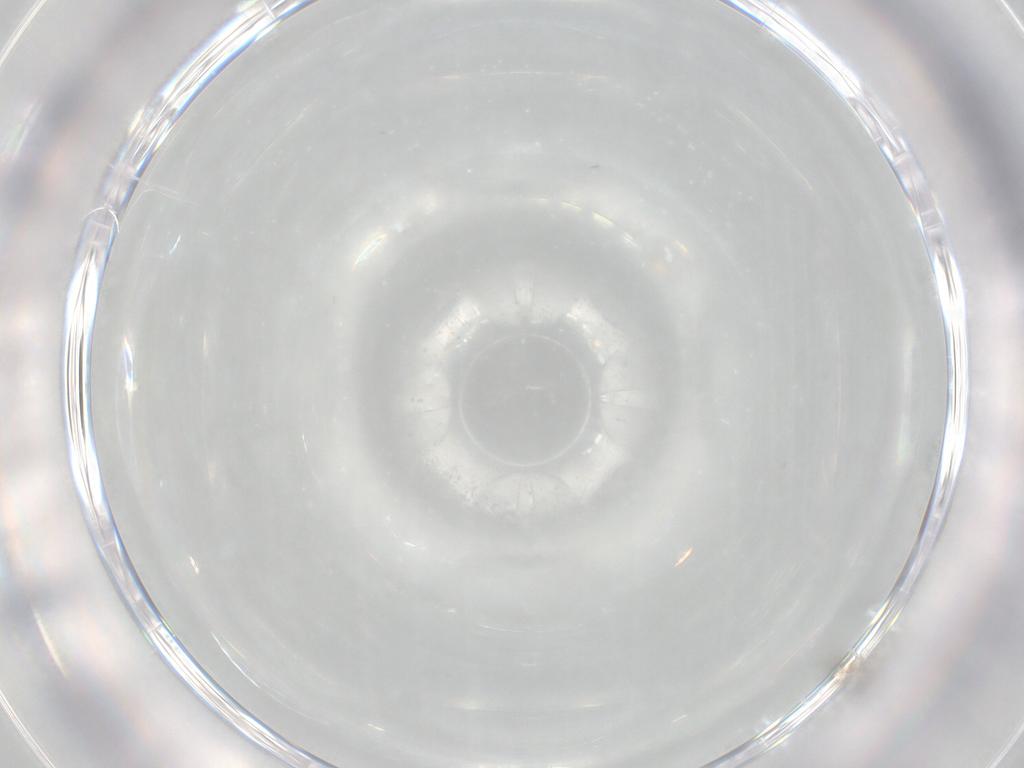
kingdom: Animalia
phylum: Arthropoda
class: Insecta
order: Diptera
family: Cecidomyiidae
